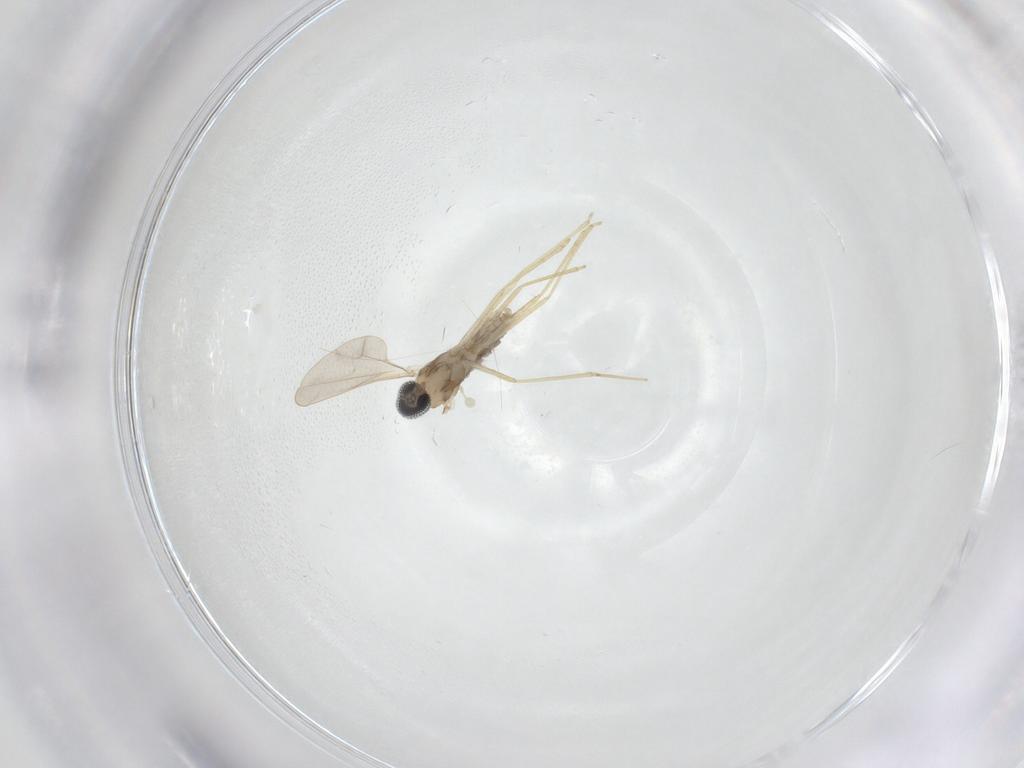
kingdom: Animalia
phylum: Arthropoda
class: Insecta
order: Diptera
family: Cecidomyiidae
